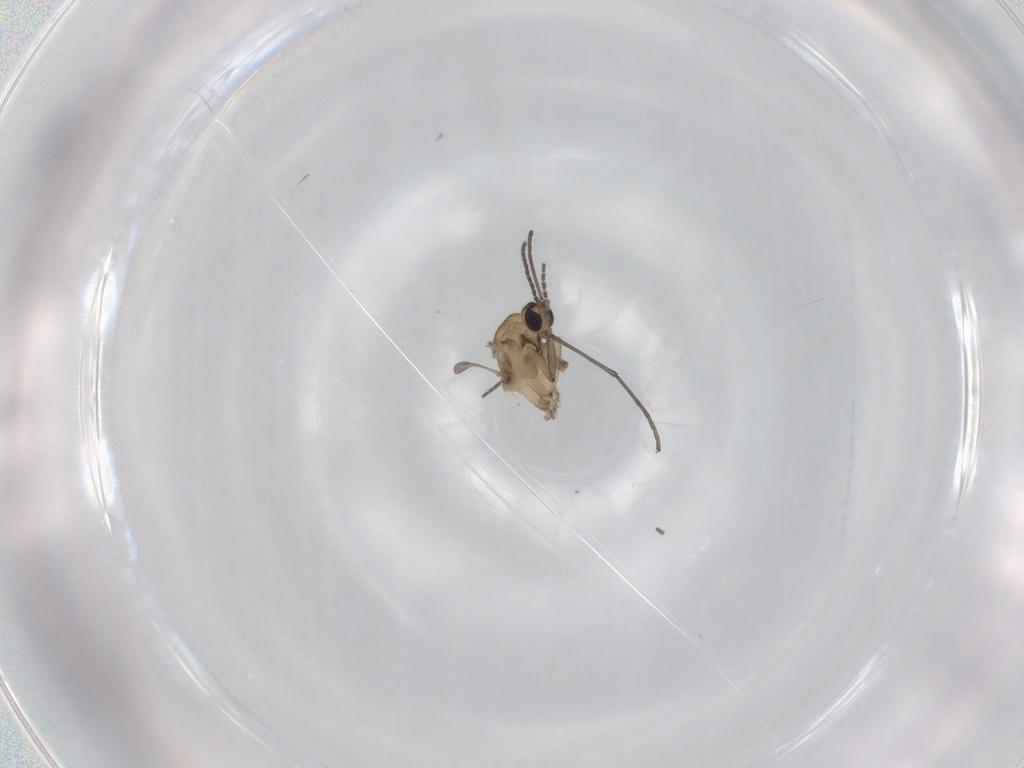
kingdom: Animalia
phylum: Arthropoda
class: Insecta
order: Diptera
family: Sciaridae
